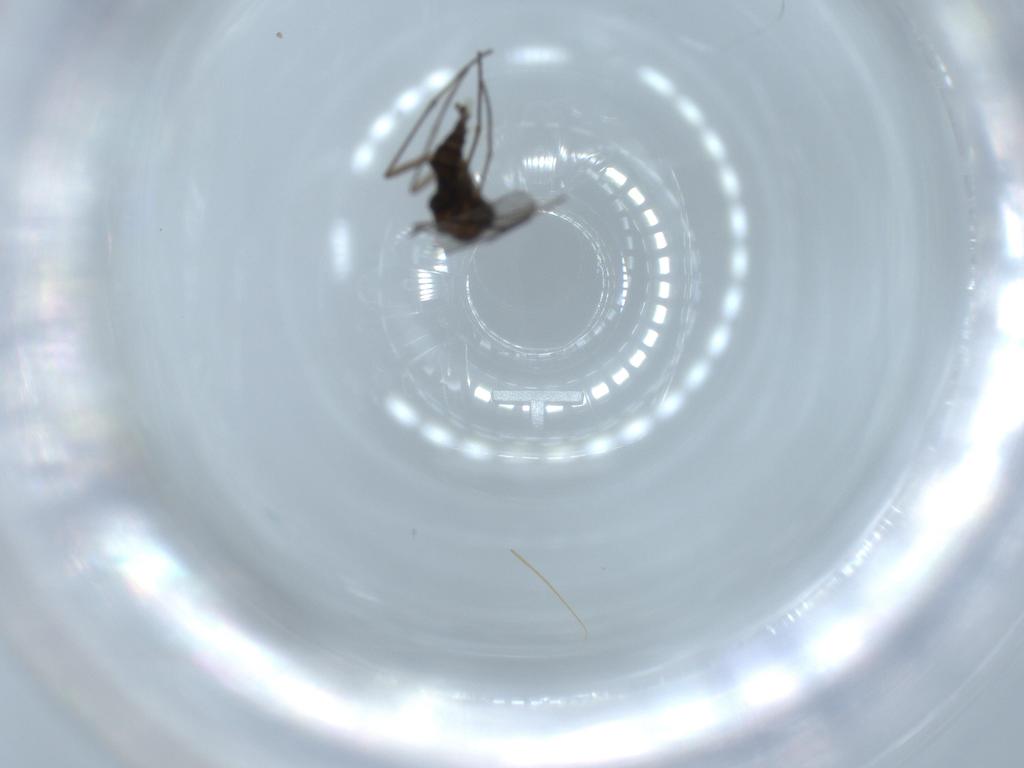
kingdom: Animalia
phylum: Arthropoda
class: Insecta
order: Diptera
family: Sciaridae
